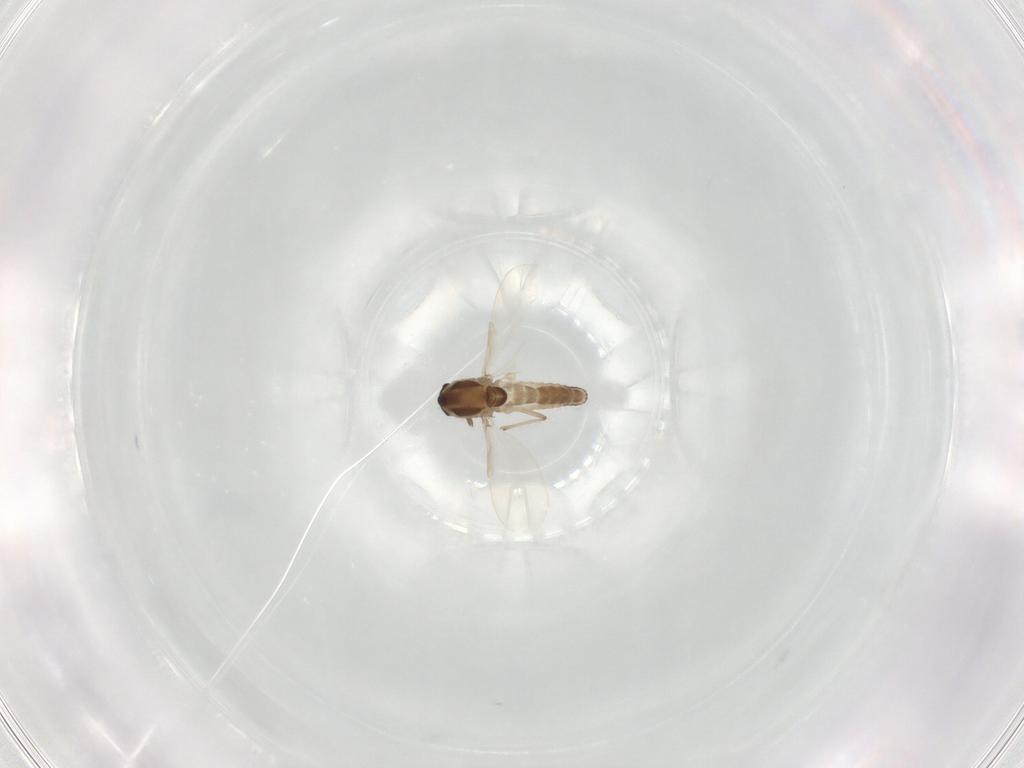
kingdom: Animalia
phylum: Arthropoda
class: Insecta
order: Diptera
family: Chironomidae
